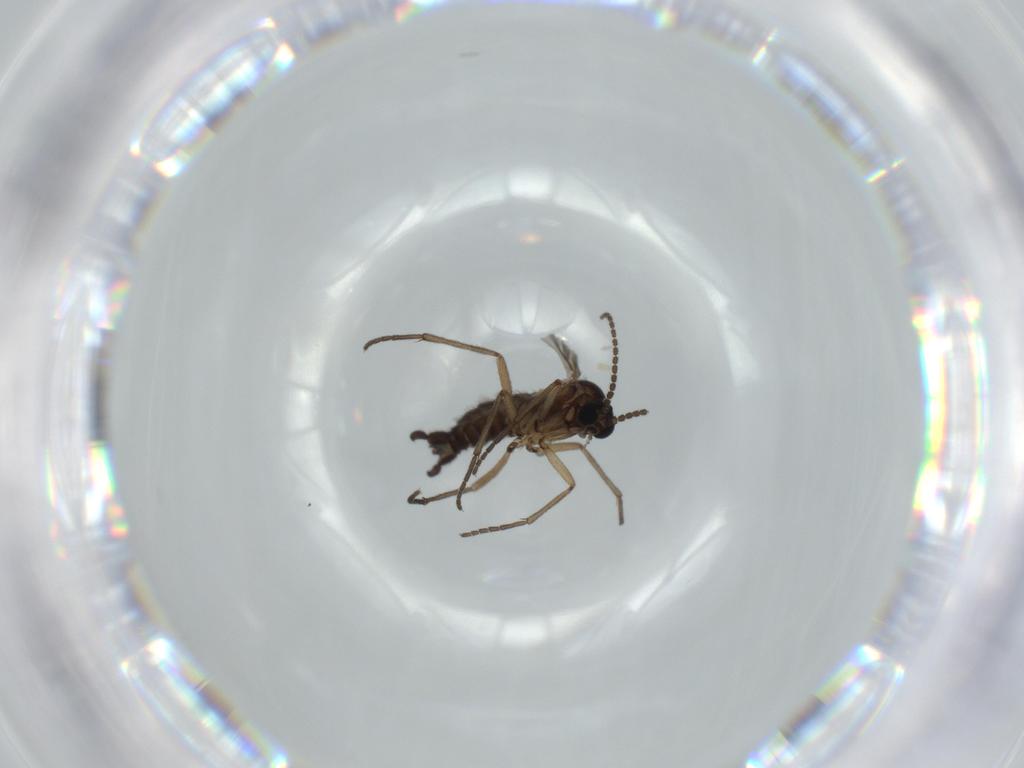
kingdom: Animalia
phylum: Arthropoda
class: Insecta
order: Diptera
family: Sciaridae
